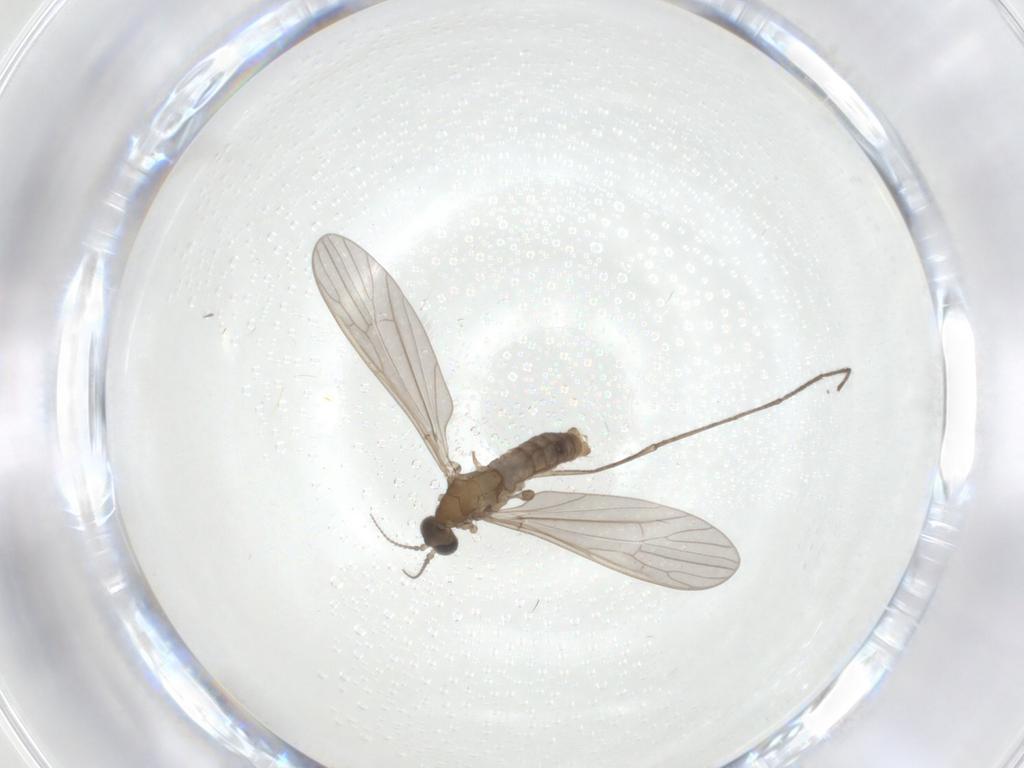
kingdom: Animalia
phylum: Arthropoda
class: Insecta
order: Diptera
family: Limoniidae
